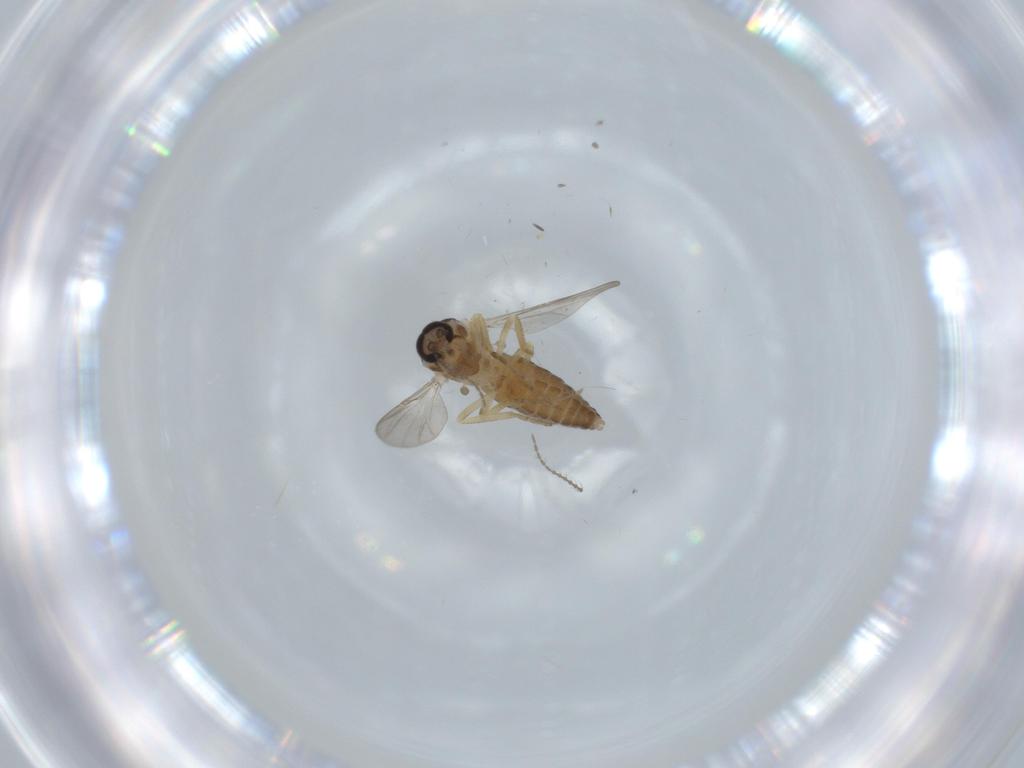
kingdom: Animalia
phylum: Arthropoda
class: Insecta
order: Diptera
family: Ceratopogonidae
